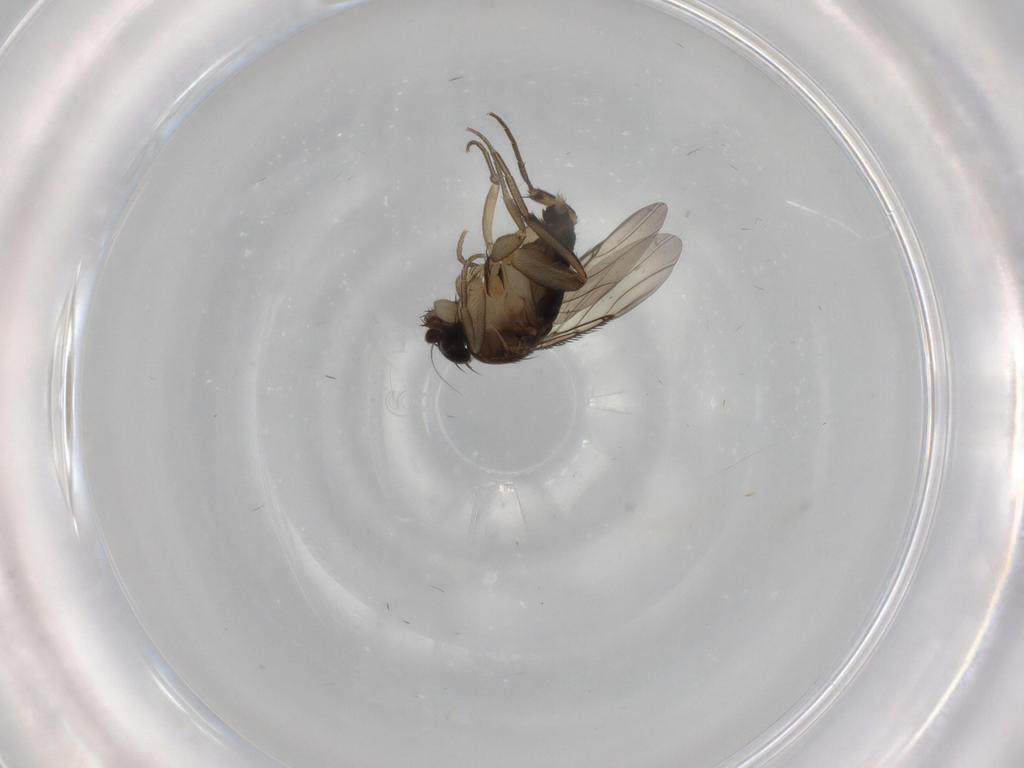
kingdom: Animalia
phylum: Arthropoda
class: Insecta
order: Diptera
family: Phoridae
